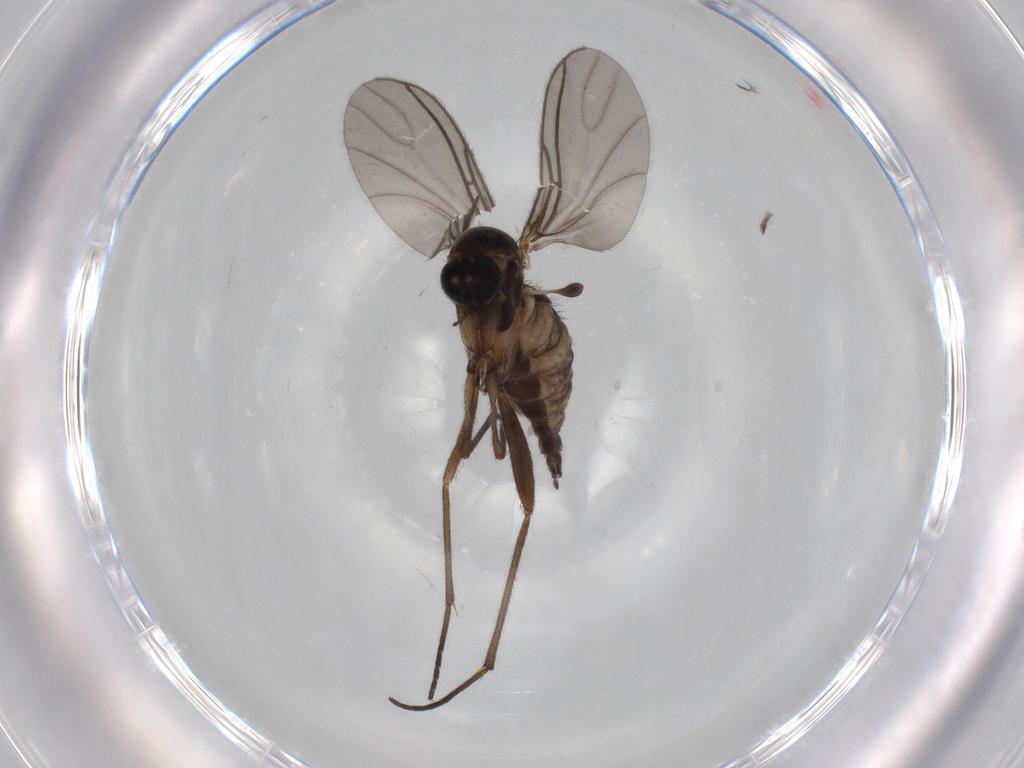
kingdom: Animalia
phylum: Arthropoda
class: Insecta
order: Diptera
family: Sciaridae
